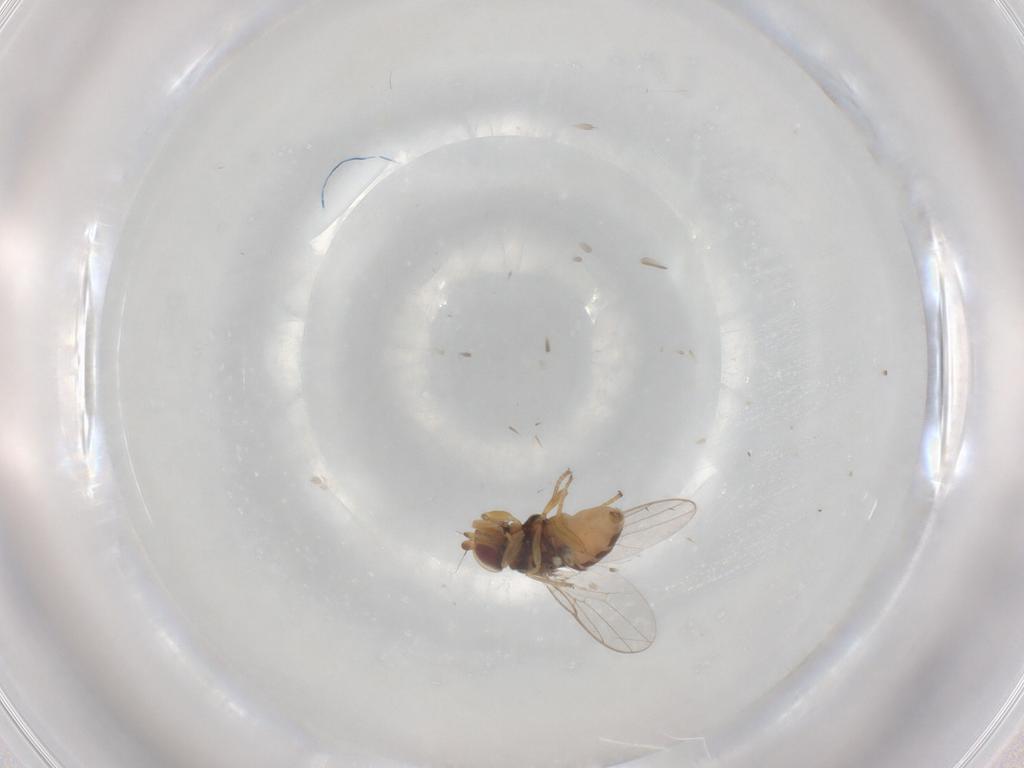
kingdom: Animalia
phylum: Arthropoda
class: Insecta
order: Diptera
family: Chloropidae
